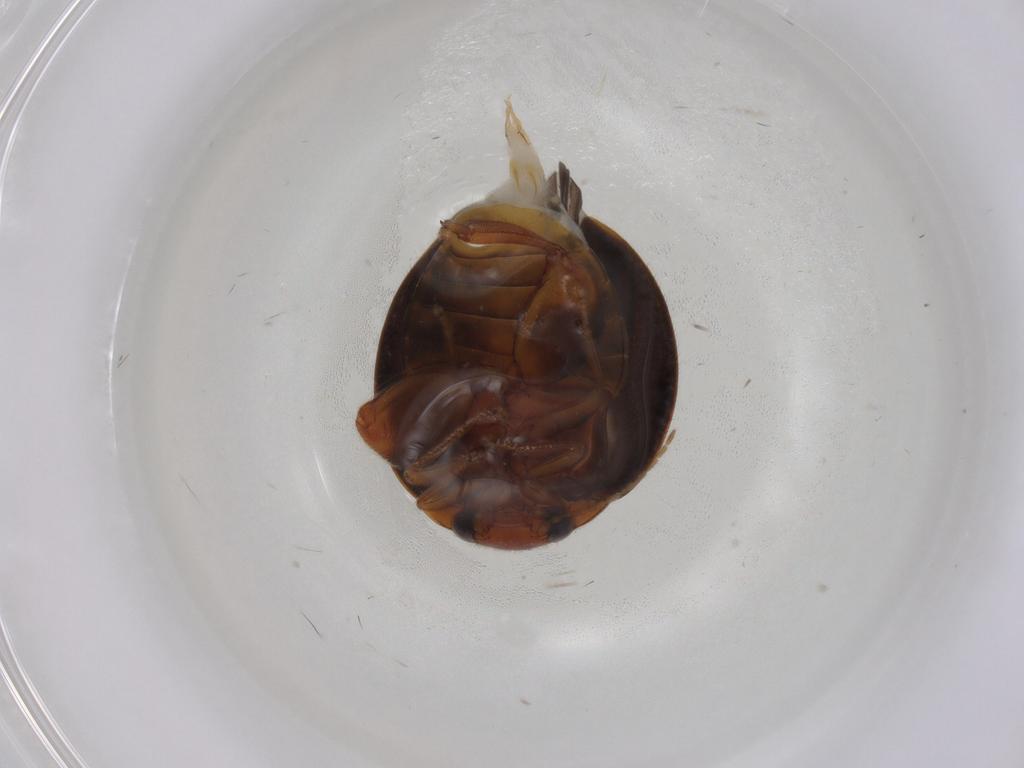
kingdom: Animalia
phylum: Arthropoda
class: Insecta
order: Coleoptera
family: Scirtidae
